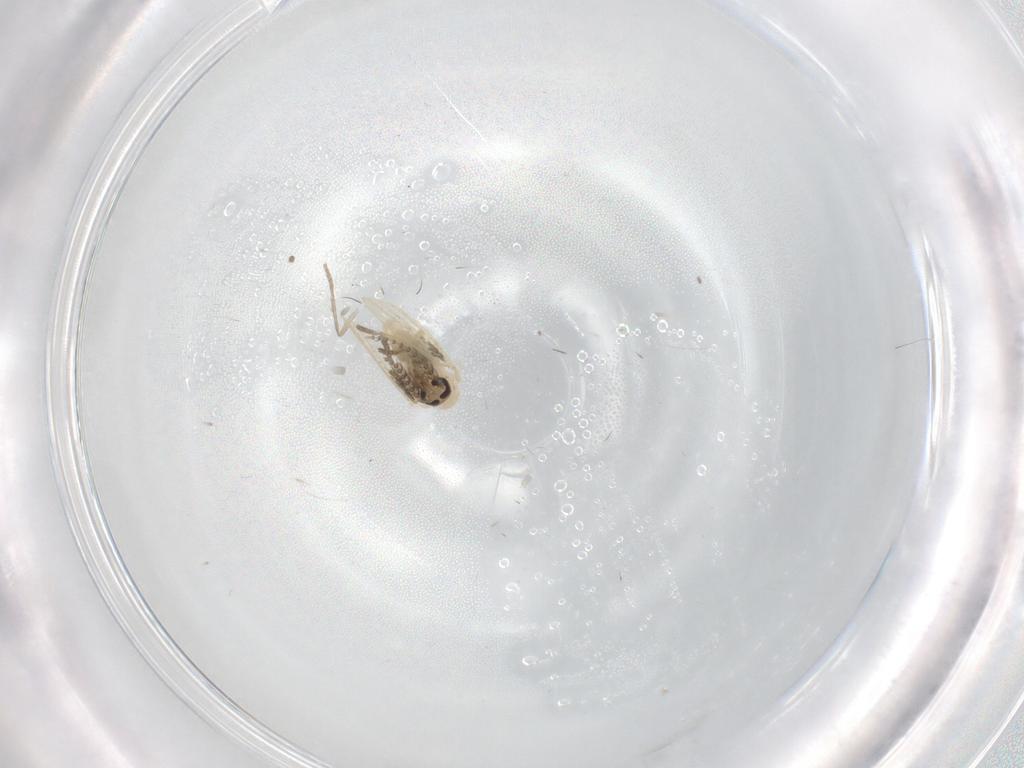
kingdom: Animalia
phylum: Arthropoda
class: Insecta
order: Diptera
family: Psychodidae
